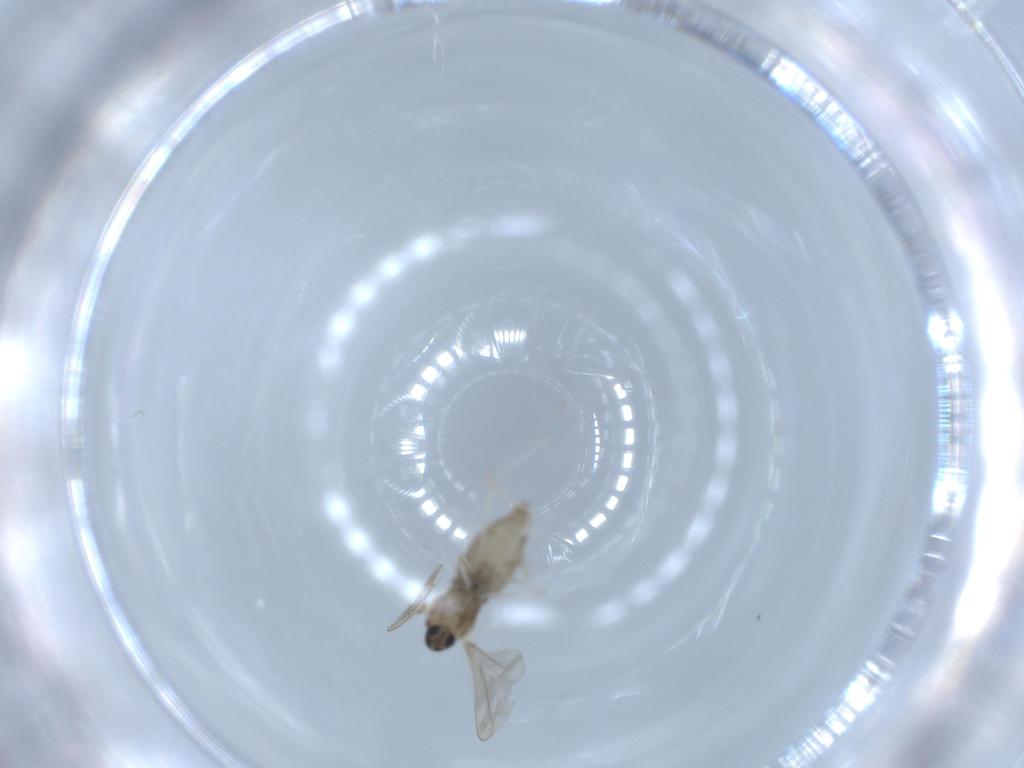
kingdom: Animalia
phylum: Arthropoda
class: Insecta
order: Diptera
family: Cecidomyiidae
